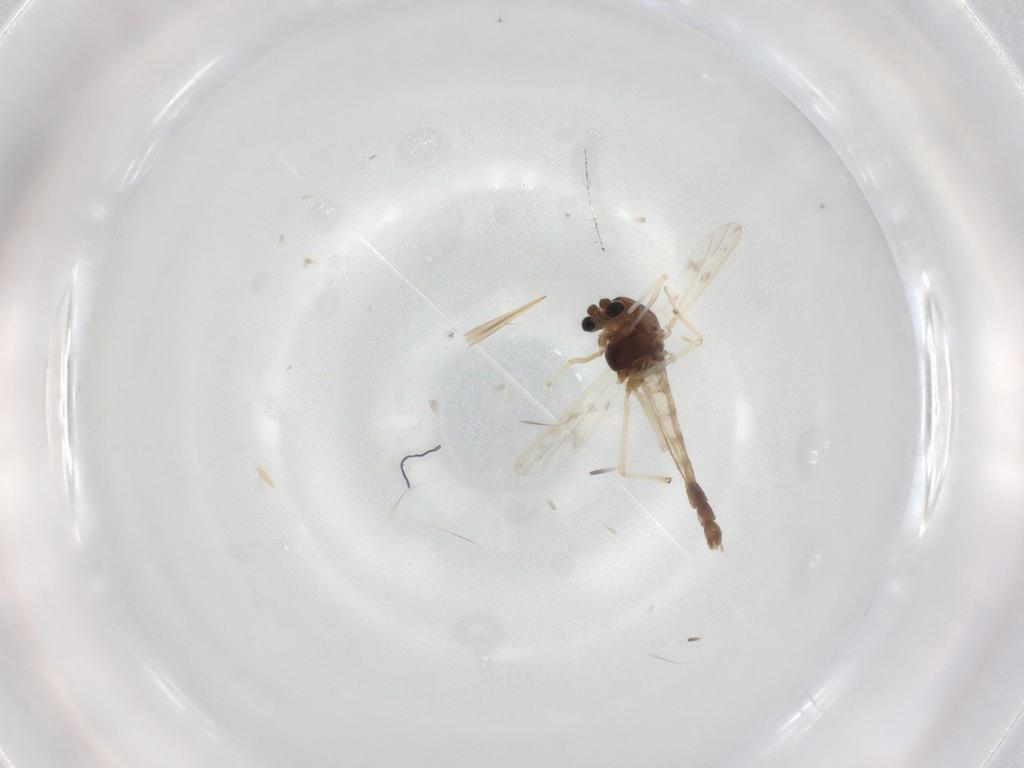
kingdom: Animalia
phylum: Arthropoda
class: Insecta
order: Diptera
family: Chironomidae
